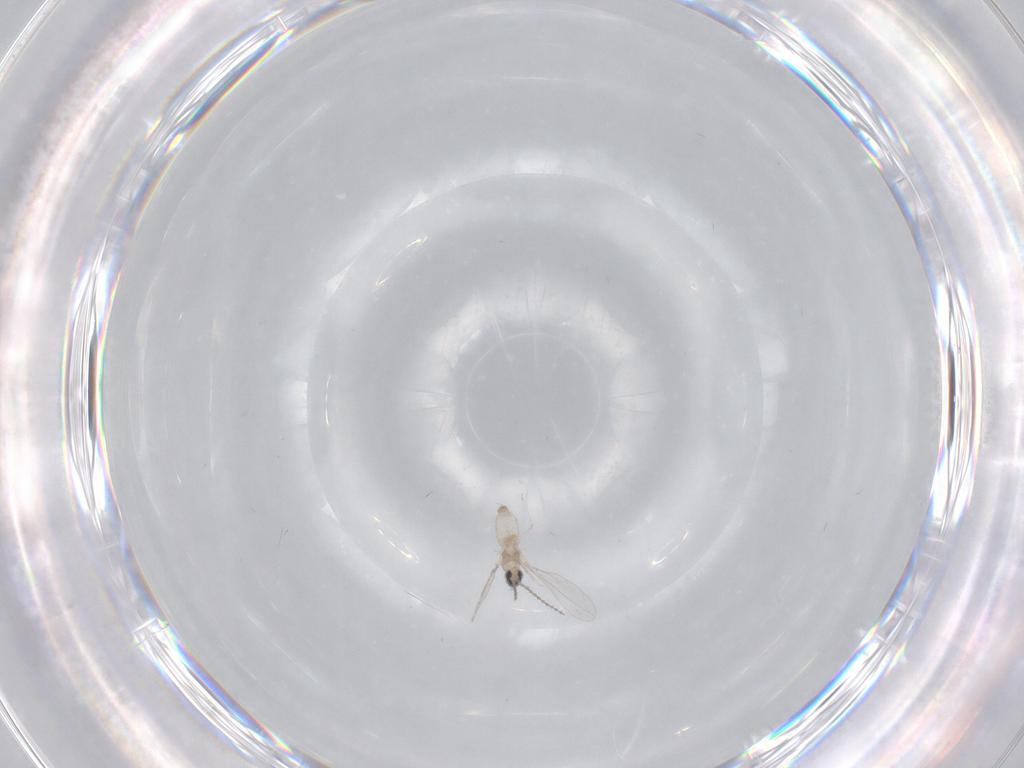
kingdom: Animalia
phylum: Arthropoda
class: Insecta
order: Diptera
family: Cecidomyiidae
